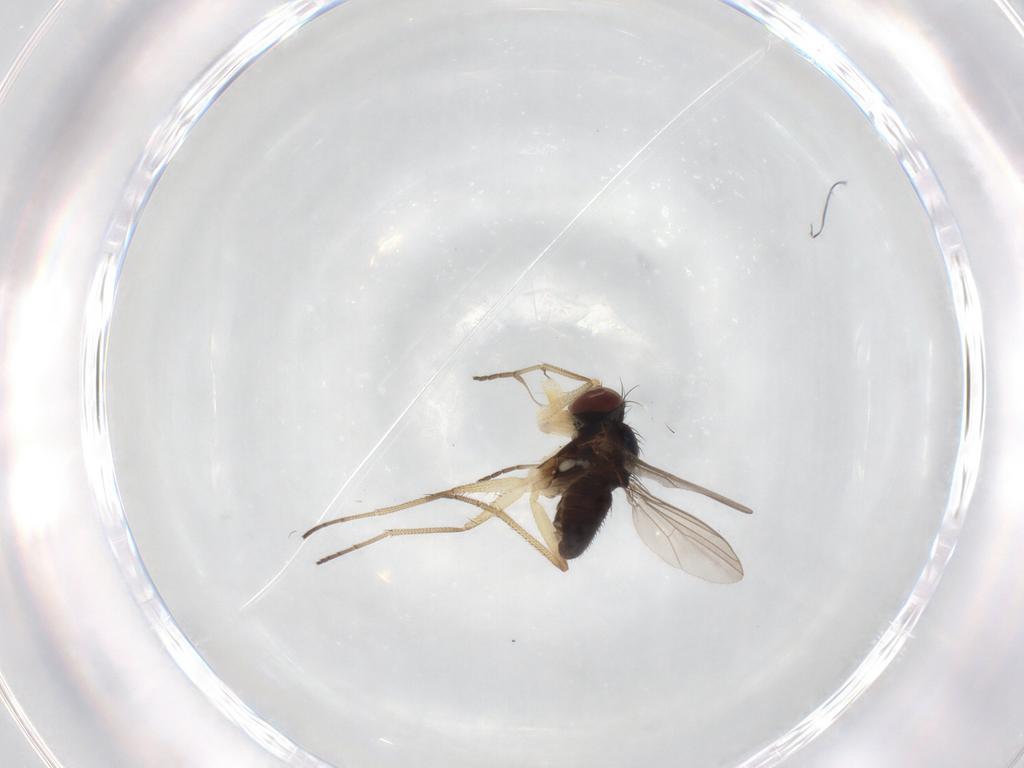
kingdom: Animalia
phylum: Arthropoda
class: Insecta
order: Diptera
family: Dolichopodidae
